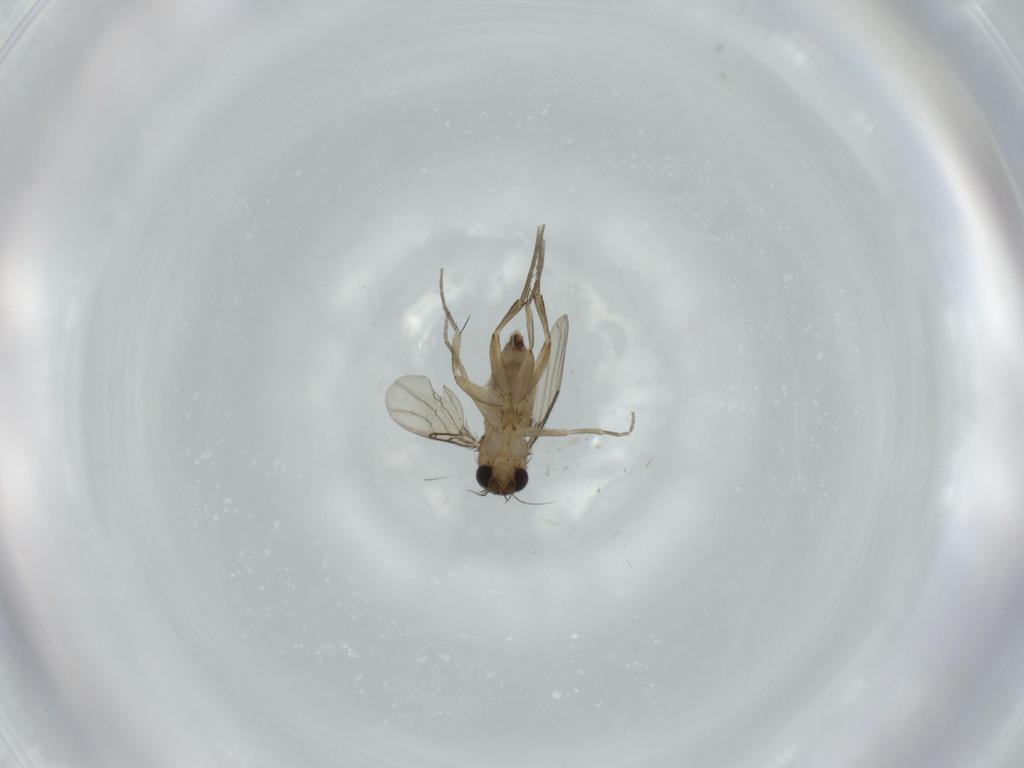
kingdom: Animalia
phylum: Arthropoda
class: Insecta
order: Diptera
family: Phoridae
